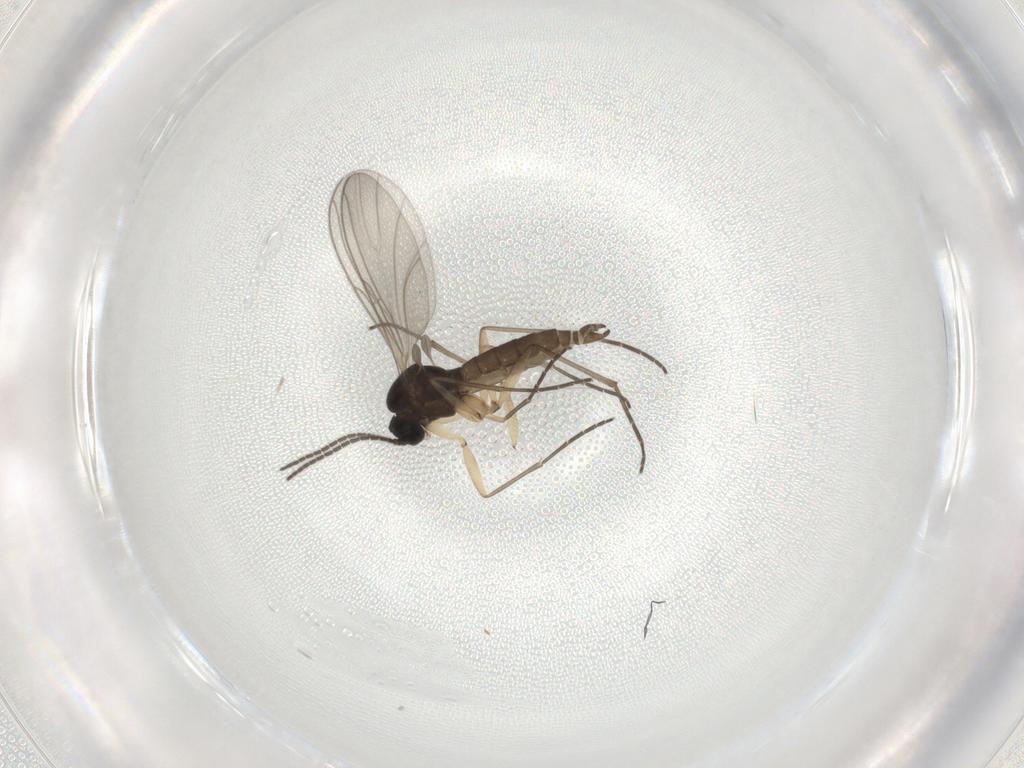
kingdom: Animalia
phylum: Arthropoda
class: Insecta
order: Diptera
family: Sciaridae
